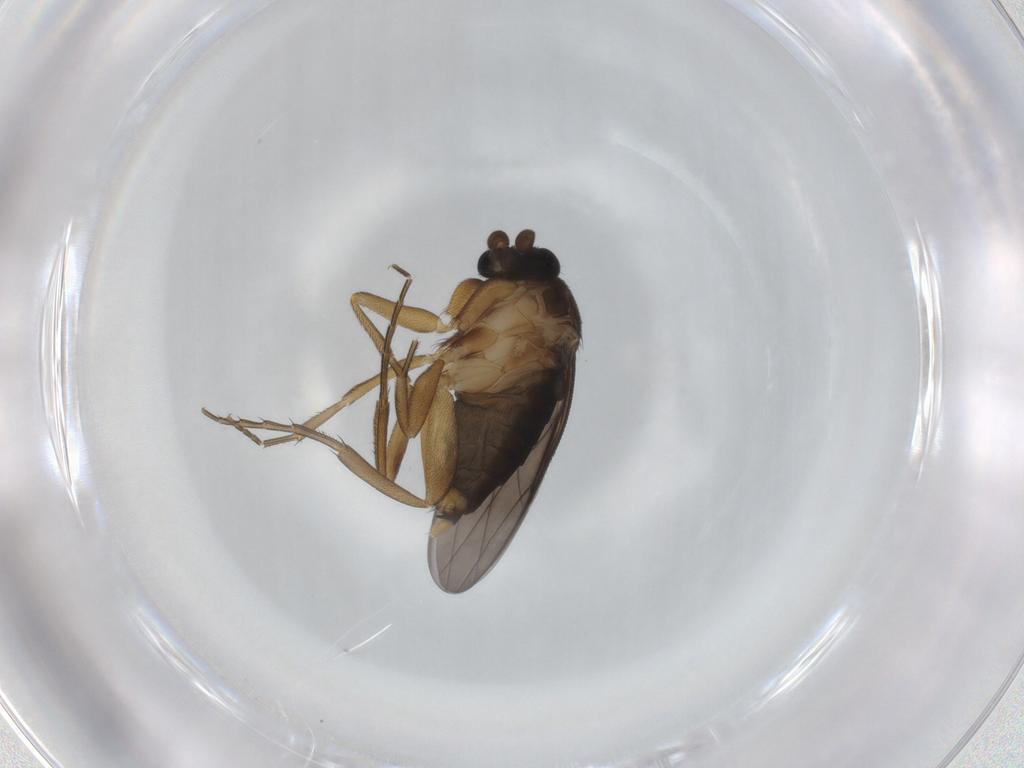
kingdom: Animalia
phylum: Arthropoda
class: Insecta
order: Diptera
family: Phoridae
